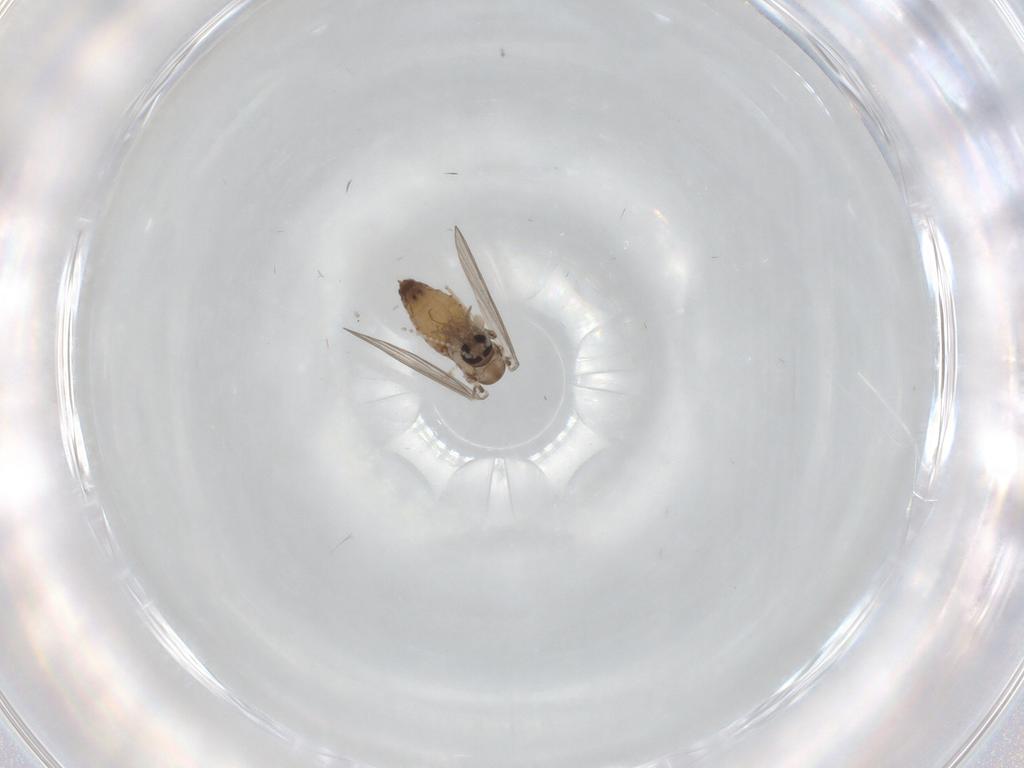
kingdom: Animalia
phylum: Arthropoda
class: Insecta
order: Diptera
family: Psychodidae
